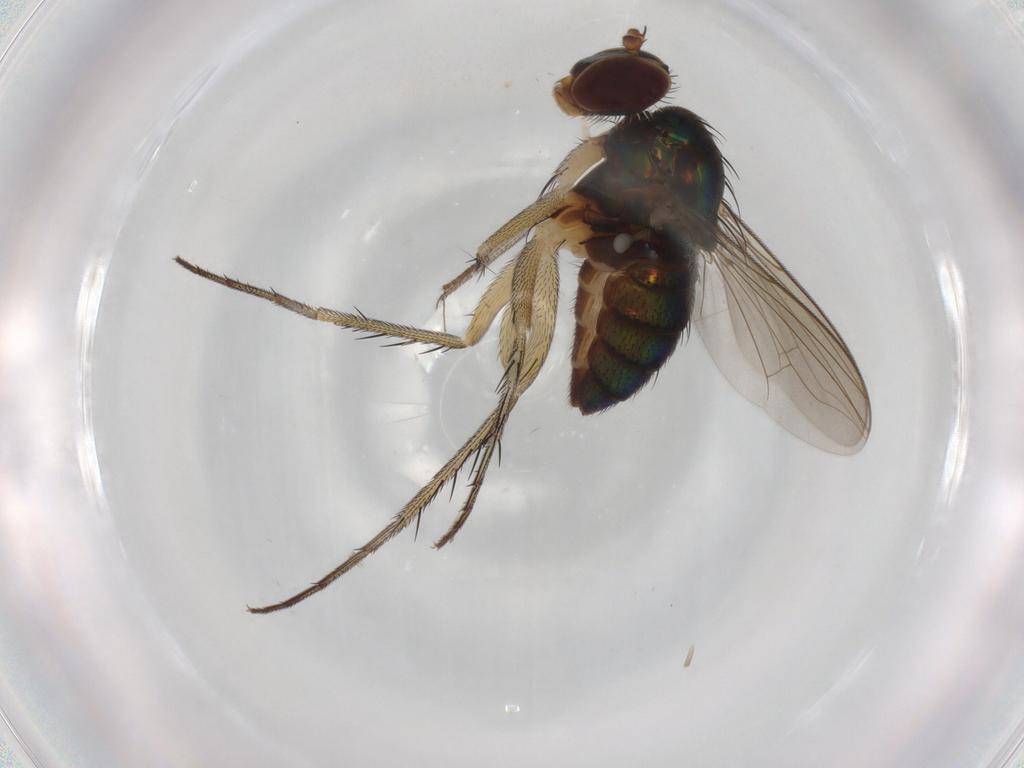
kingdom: Animalia
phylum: Arthropoda
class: Insecta
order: Diptera
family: Dolichopodidae
